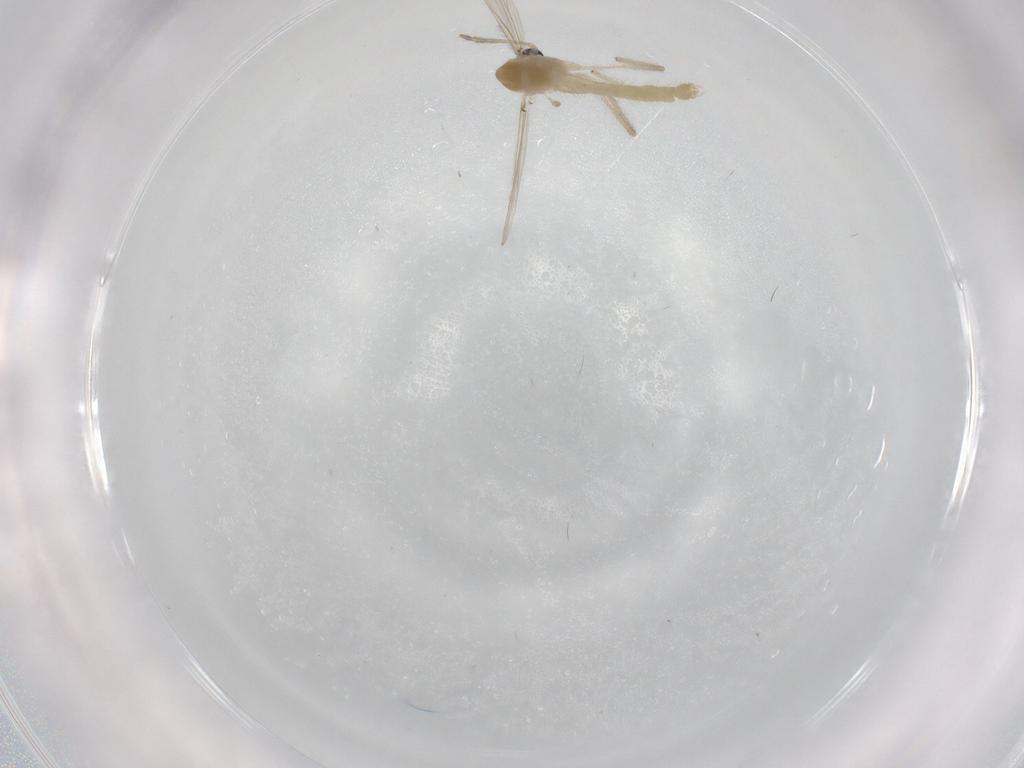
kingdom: Animalia
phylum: Arthropoda
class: Insecta
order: Diptera
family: Chironomidae
